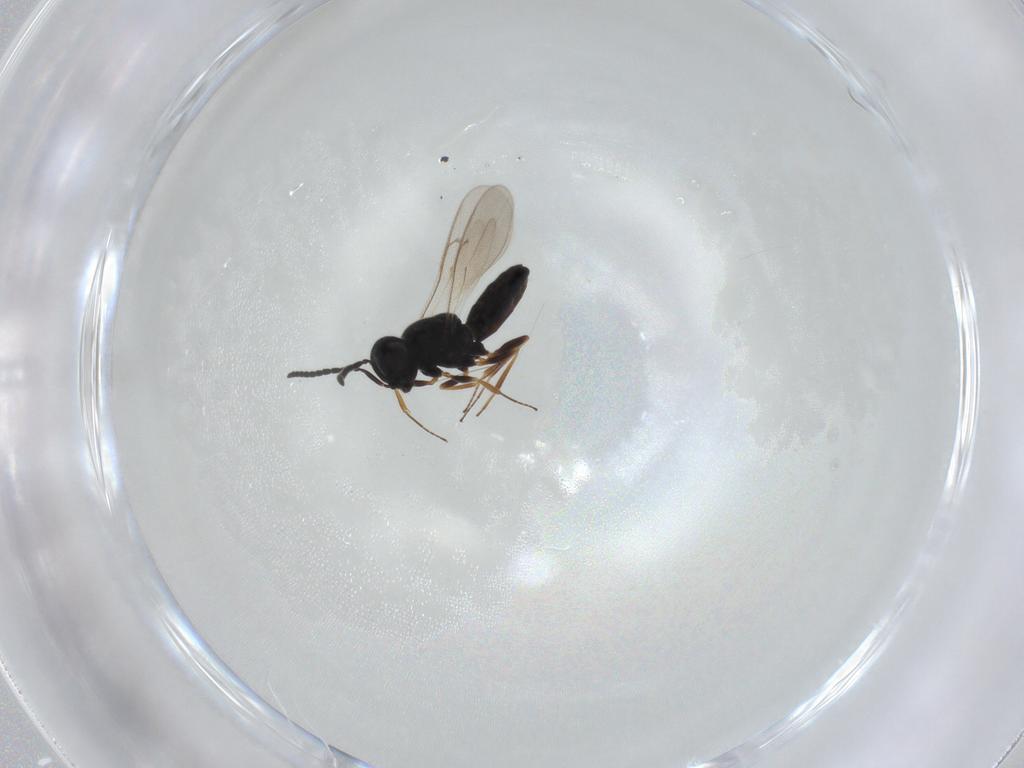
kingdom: Animalia
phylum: Arthropoda
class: Insecta
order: Hymenoptera
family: Scelionidae
